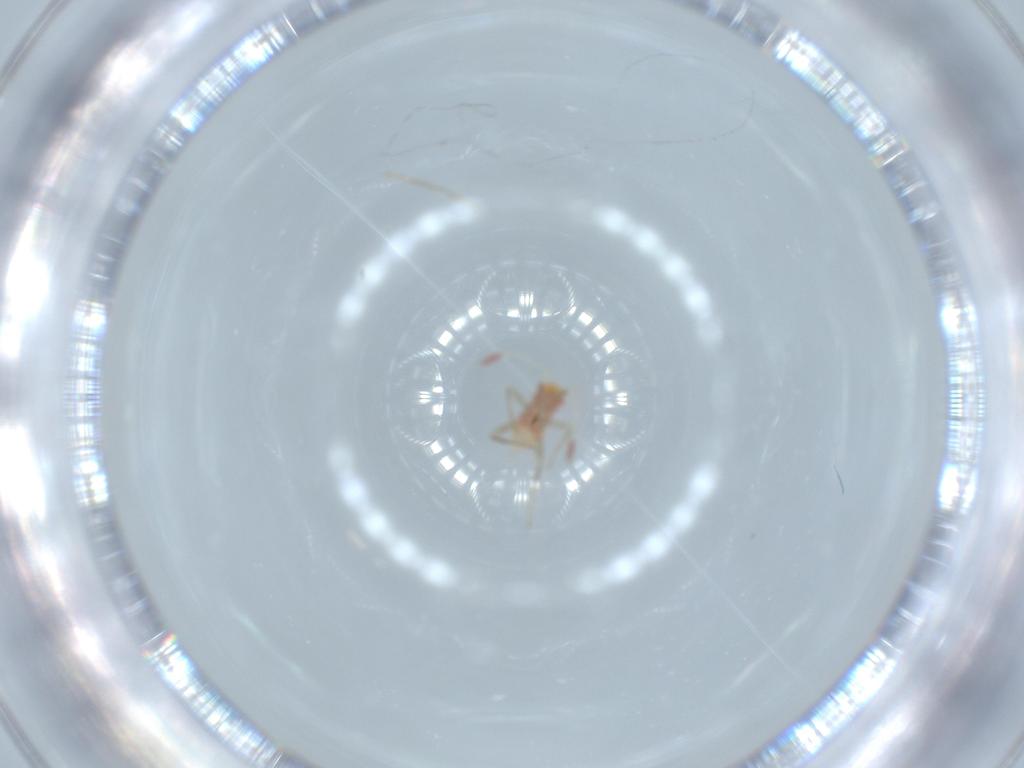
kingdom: Animalia
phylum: Arthropoda
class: Insecta
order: Hemiptera
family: Miridae
